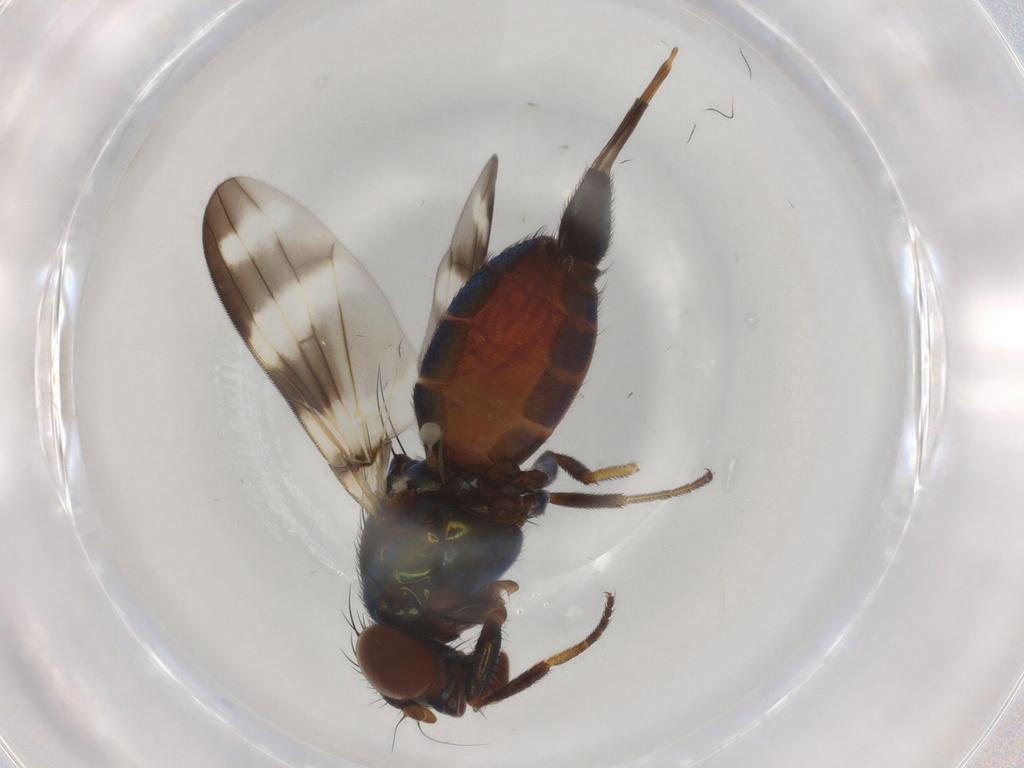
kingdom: Animalia
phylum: Arthropoda
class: Insecta
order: Diptera
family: Ulidiidae
